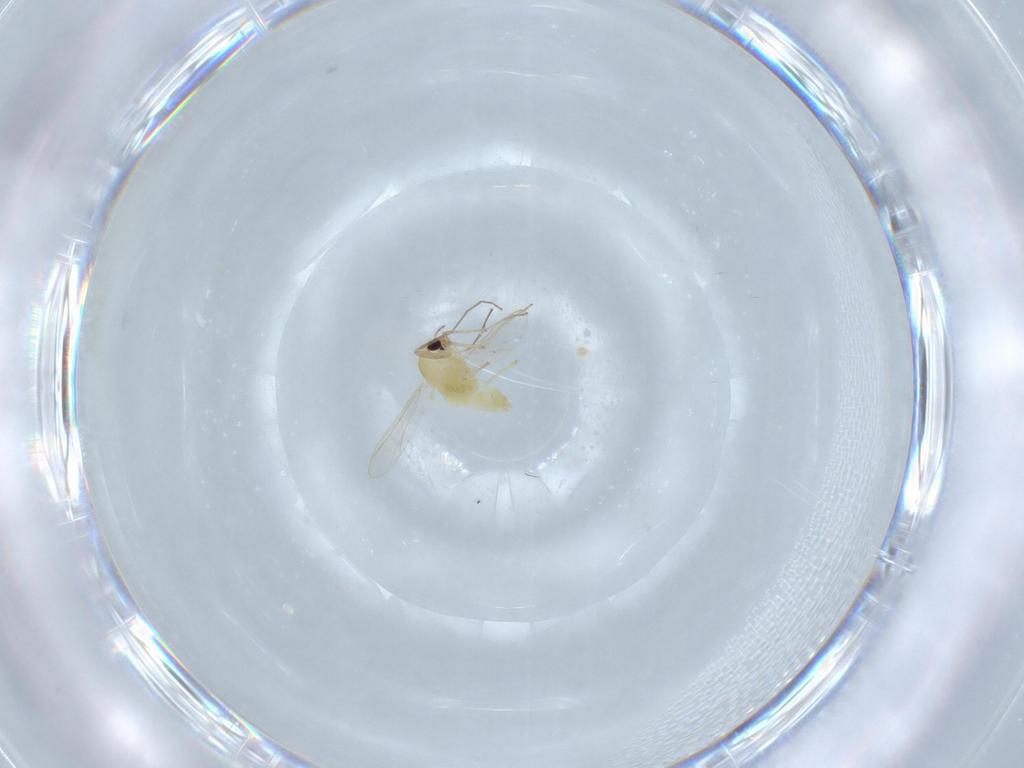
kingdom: Animalia
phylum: Arthropoda
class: Insecta
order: Diptera
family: Chironomidae
